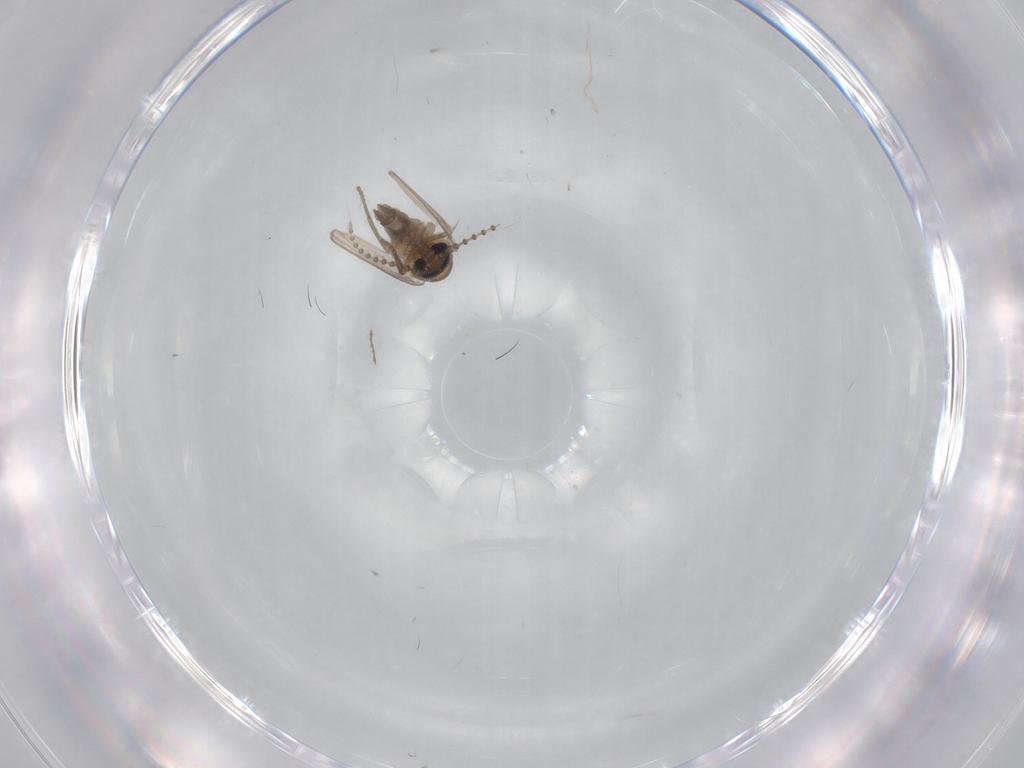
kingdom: Animalia
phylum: Arthropoda
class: Insecta
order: Diptera
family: Psychodidae
